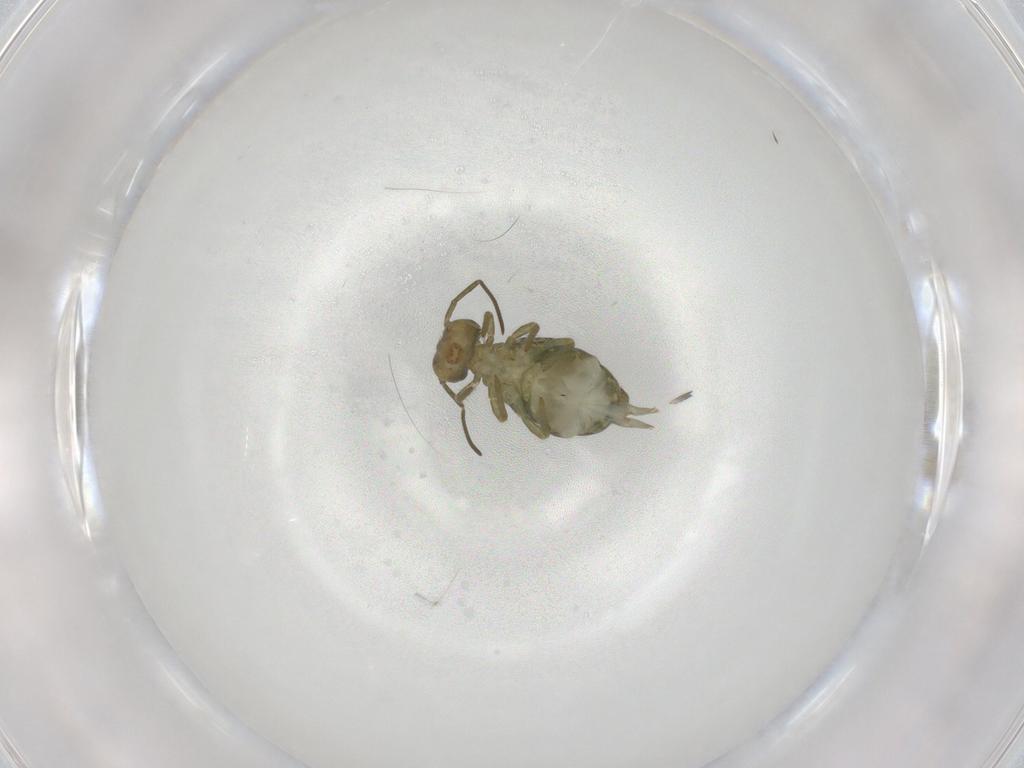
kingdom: Animalia
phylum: Arthropoda
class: Collembola
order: Symphypleona
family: Sminthuridae
